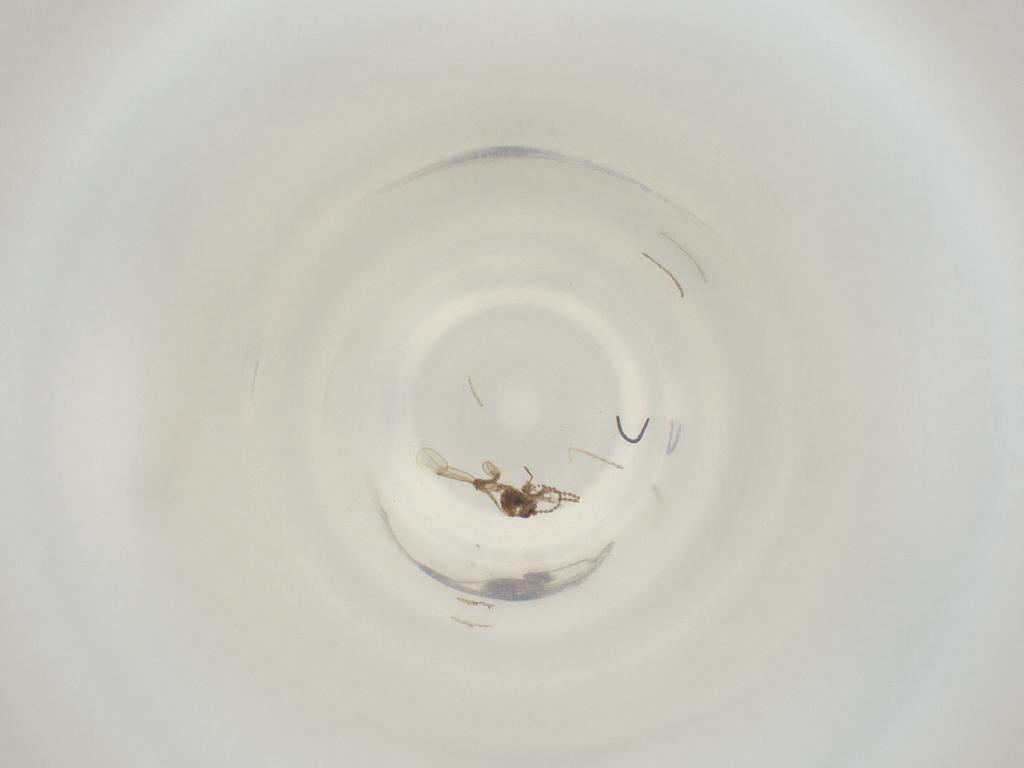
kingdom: Animalia
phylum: Arthropoda
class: Insecta
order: Diptera
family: Cecidomyiidae
